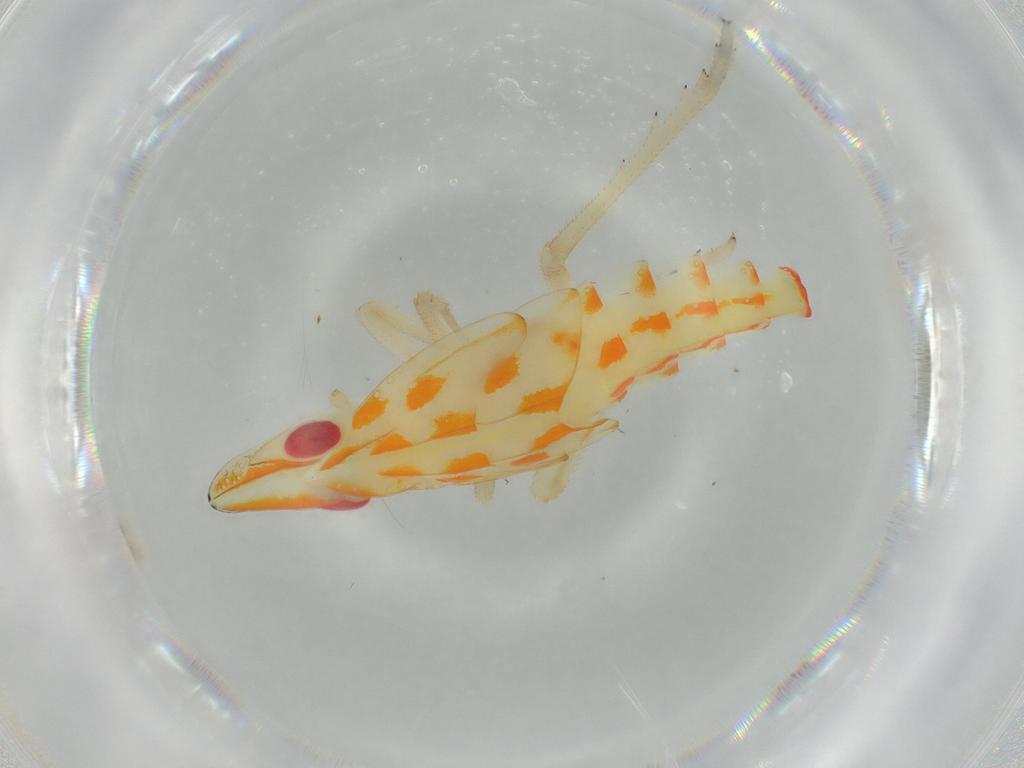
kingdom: Animalia
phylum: Arthropoda
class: Insecta
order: Hemiptera
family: Tropiduchidae
